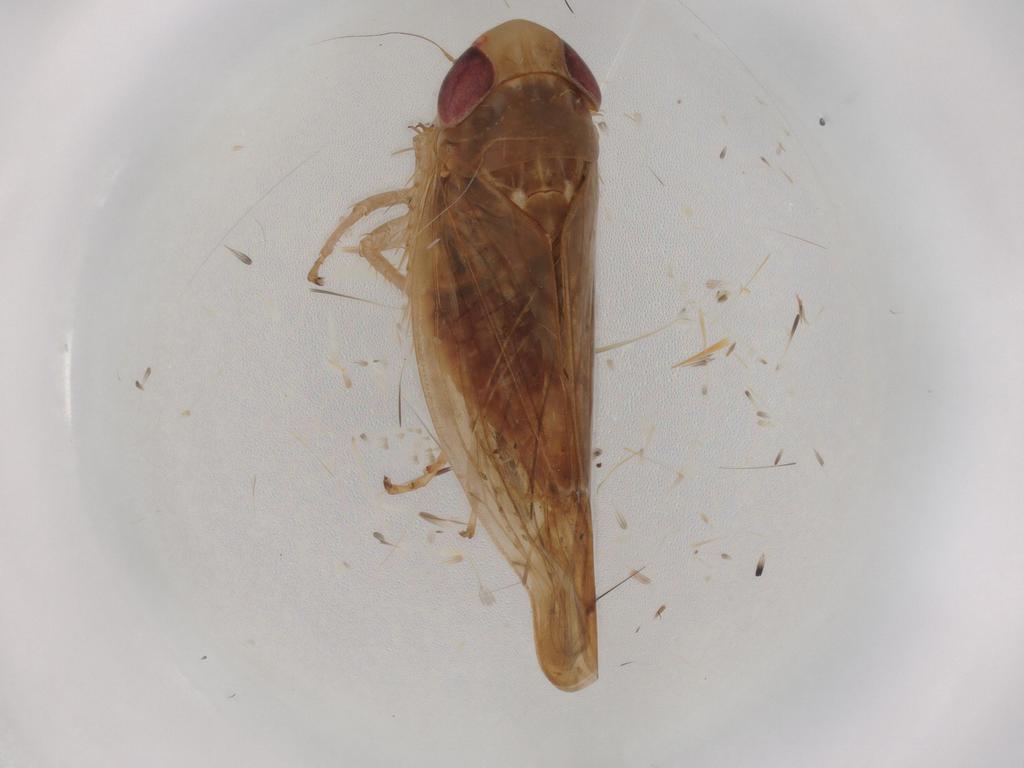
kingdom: Animalia
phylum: Arthropoda
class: Insecta
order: Hemiptera
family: Cicadellidae
